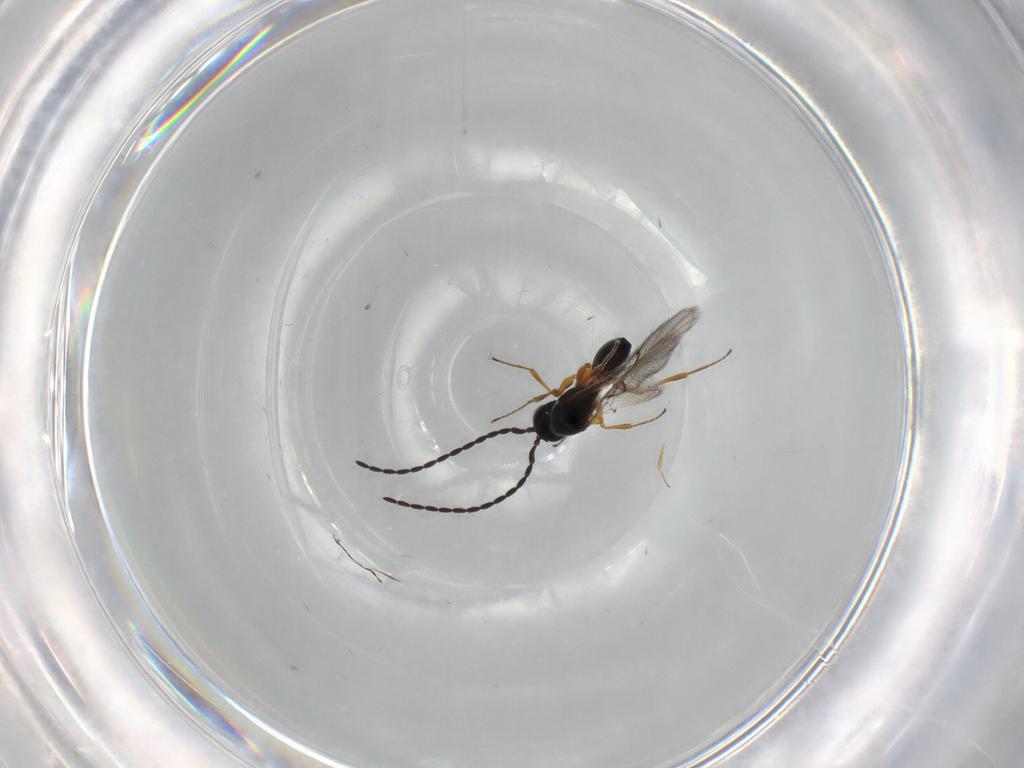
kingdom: Animalia
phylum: Arthropoda
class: Insecta
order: Hymenoptera
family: Figitidae
